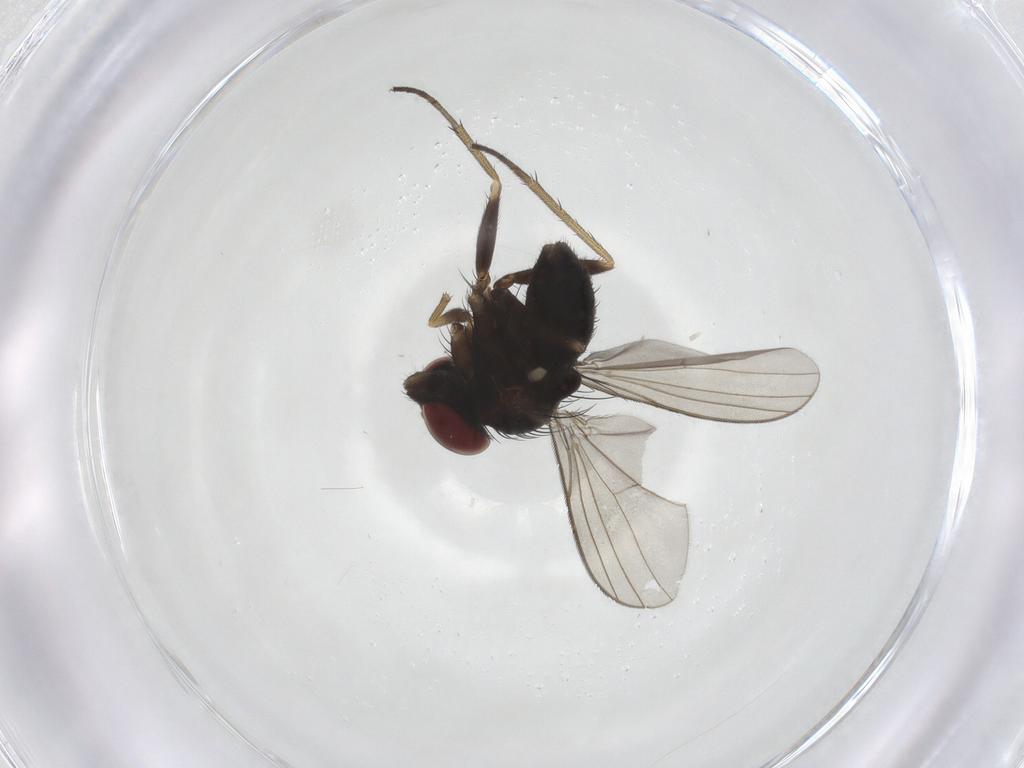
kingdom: Animalia
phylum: Arthropoda
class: Insecta
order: Diptera
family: Dolichopodidae
